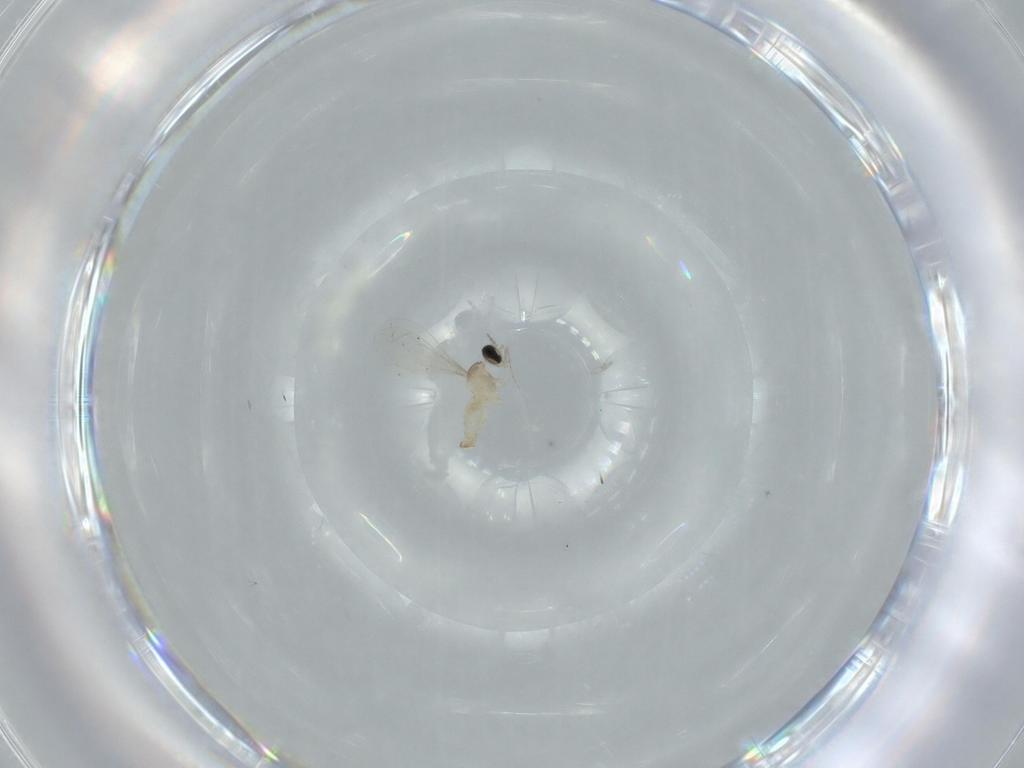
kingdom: Animalia
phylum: Arthropoda
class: Insecta
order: Diptera
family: Cecidomyiidae
